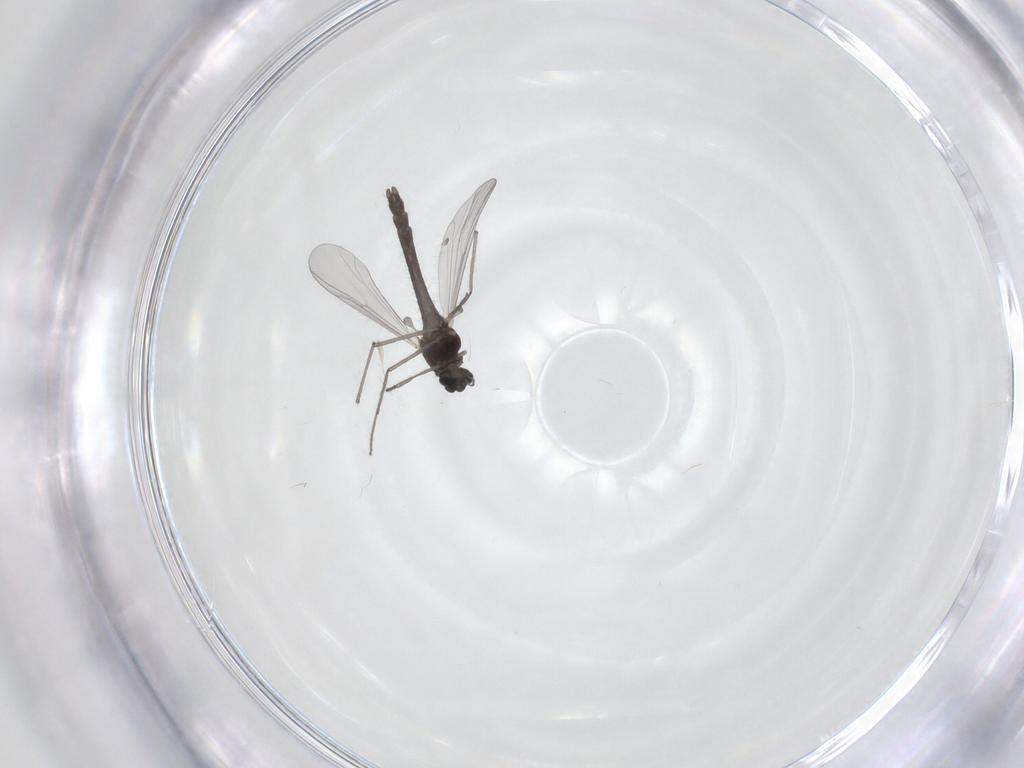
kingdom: Animalia
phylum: Arthropoda
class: Insecta
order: Diptera
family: Chironomidae
